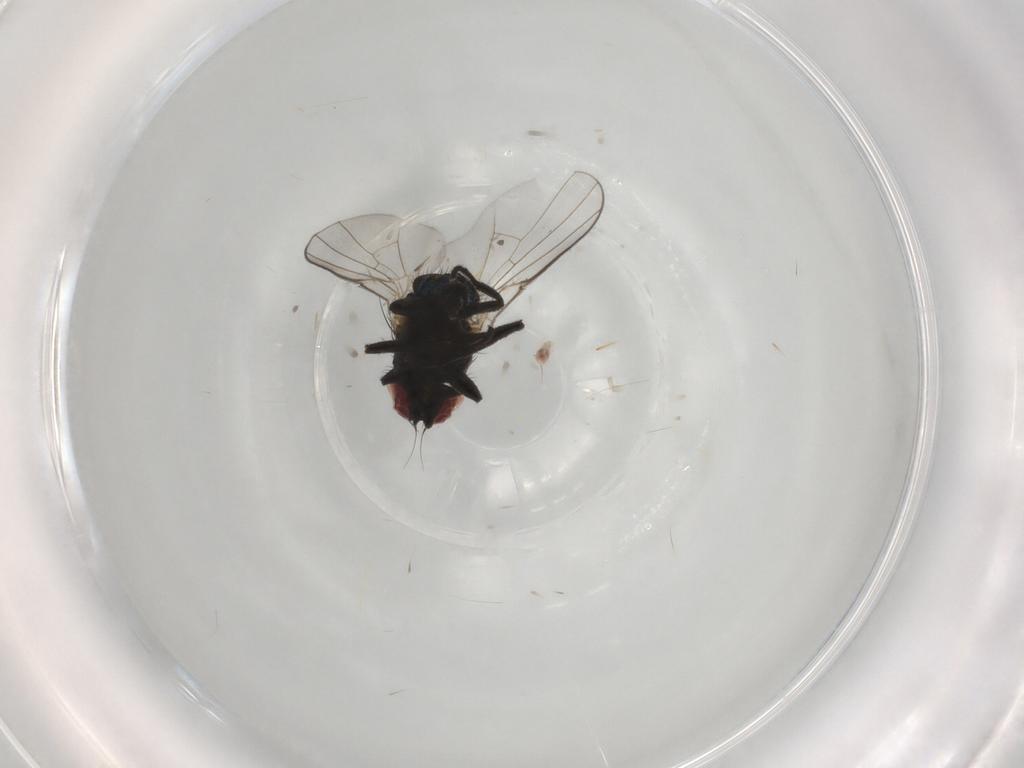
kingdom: Animalia
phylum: Arthropoda
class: Insecta
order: Diptera
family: Agromyzidae
